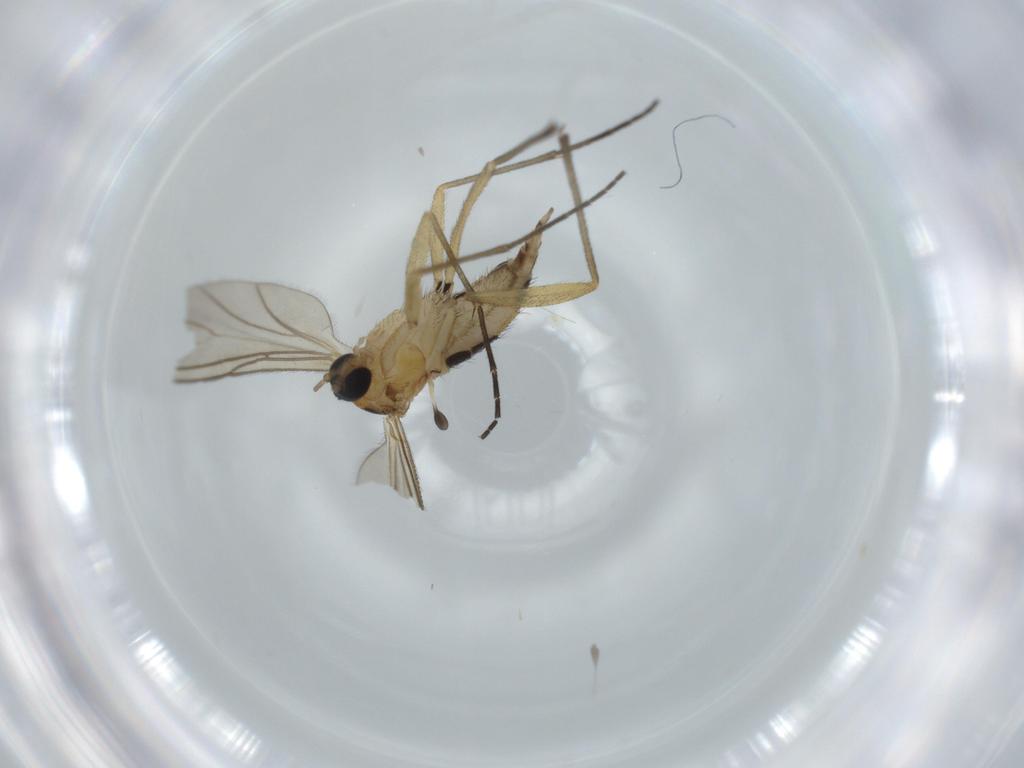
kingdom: Animalia
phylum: Arthropoda
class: Insecta
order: Diptera
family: Sciaridae
